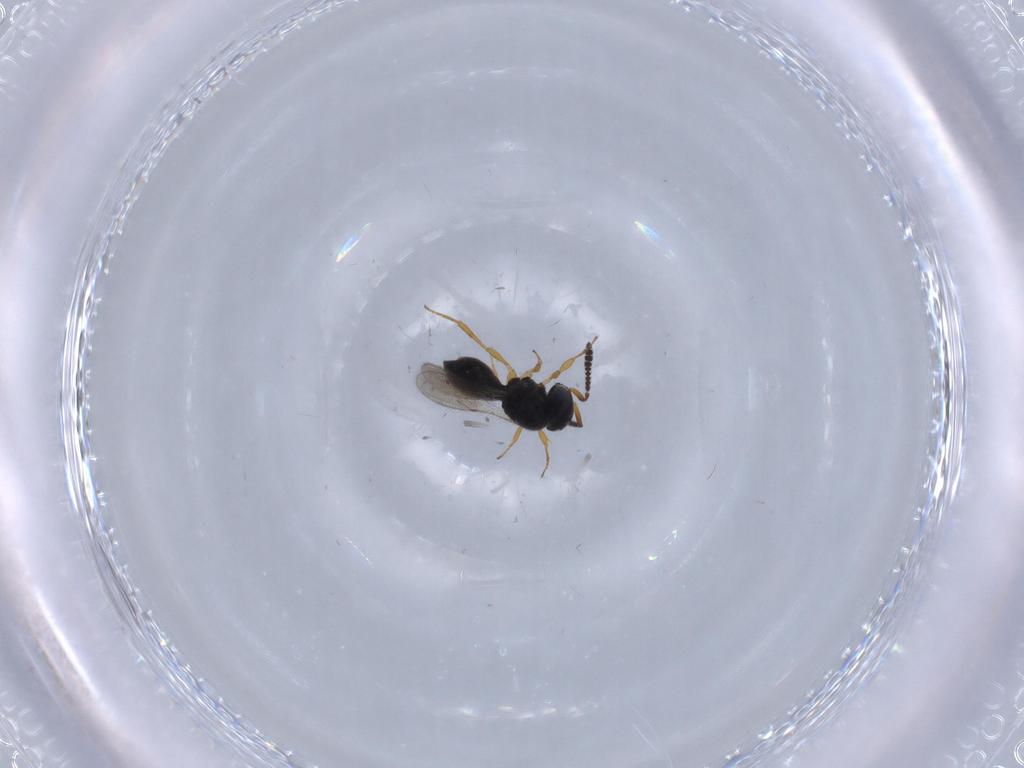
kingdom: Animalia
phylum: Arthropoda
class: Insecta
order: Hymenoptera
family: Scelionidae
